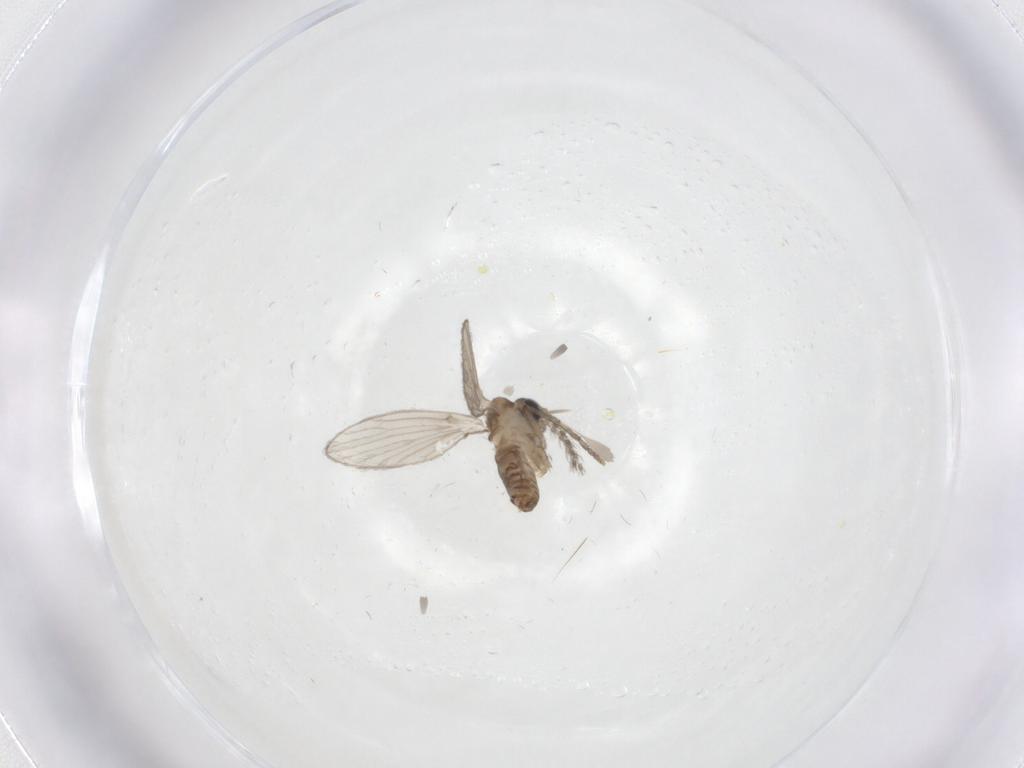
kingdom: Animalia
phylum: Arthropoda
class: Insecta
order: Diptera
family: Psychodidae
